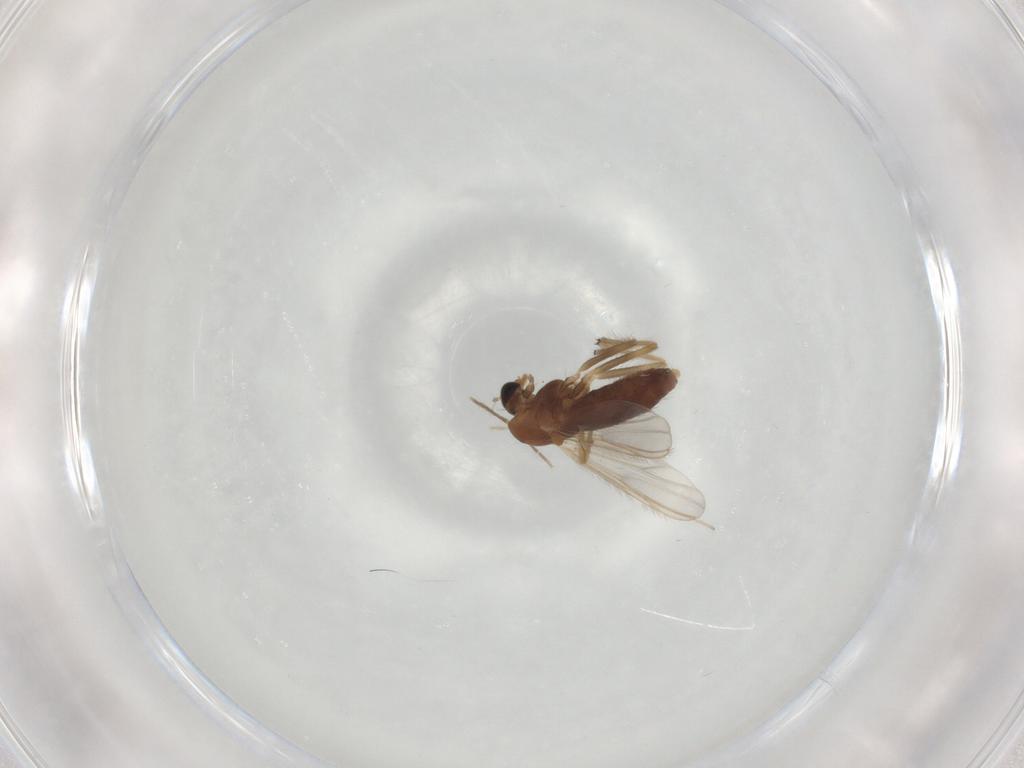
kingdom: Animalia
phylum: Arthropoda
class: Insecta
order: Diptera
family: Chironomidae
